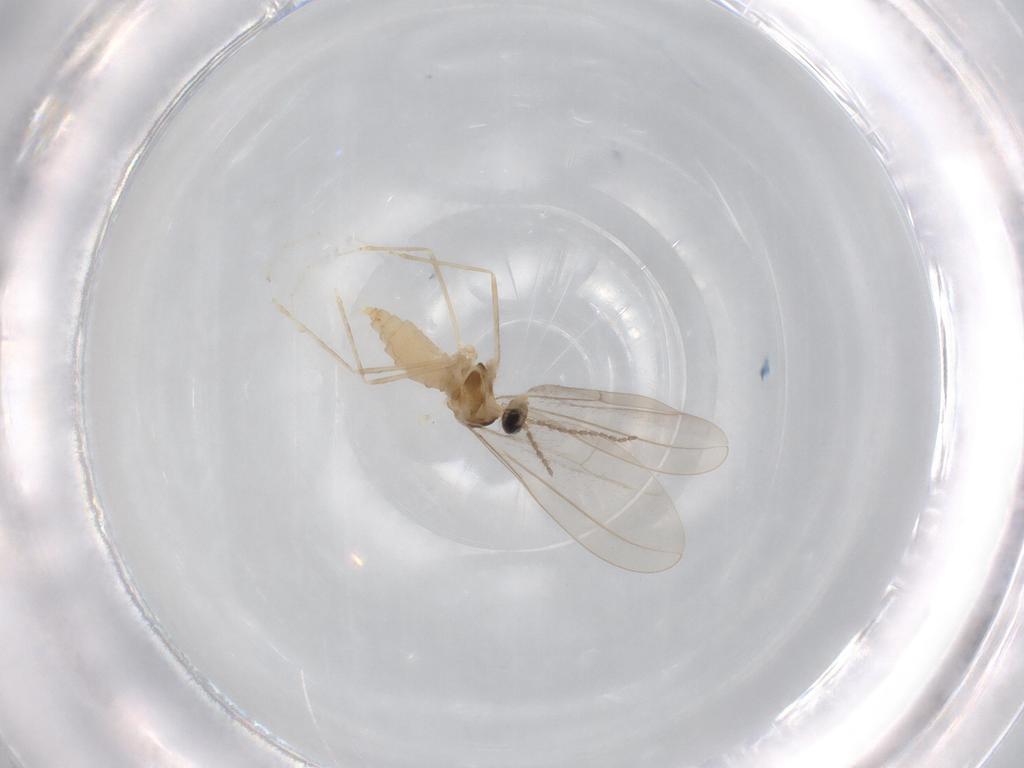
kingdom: Animalia
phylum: Arthropoda
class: Insecta
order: Diptera
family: Cecidomyiidae
